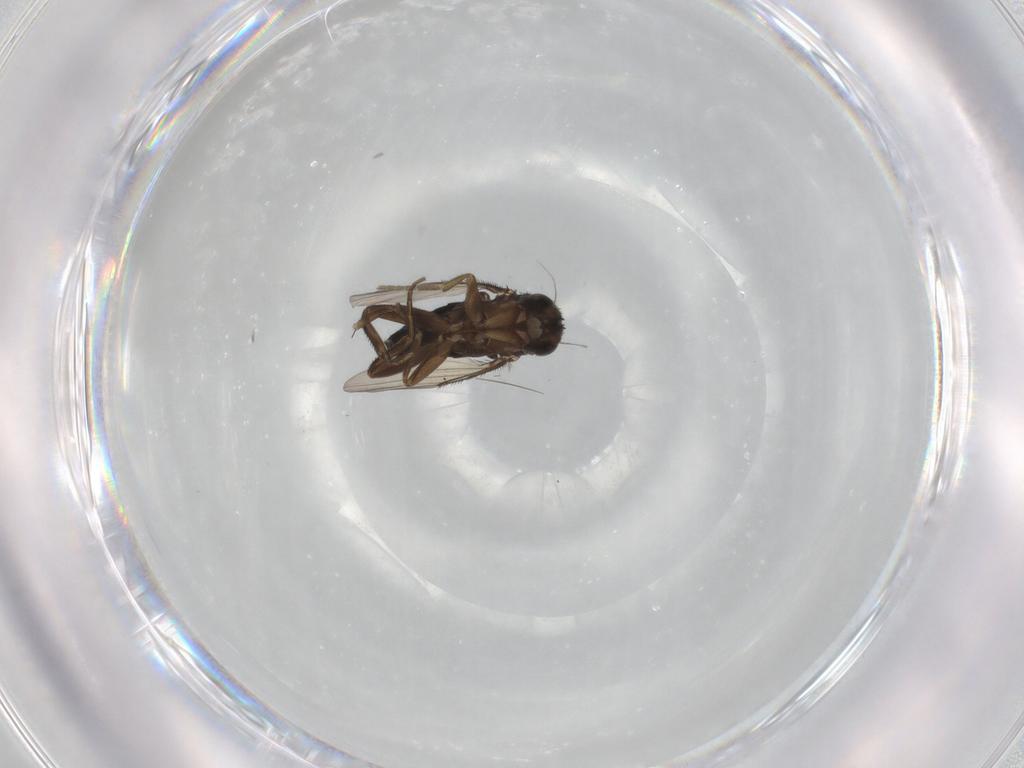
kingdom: Animalia
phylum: Arthropoda
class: Insecta
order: Diptera
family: Phoridae
